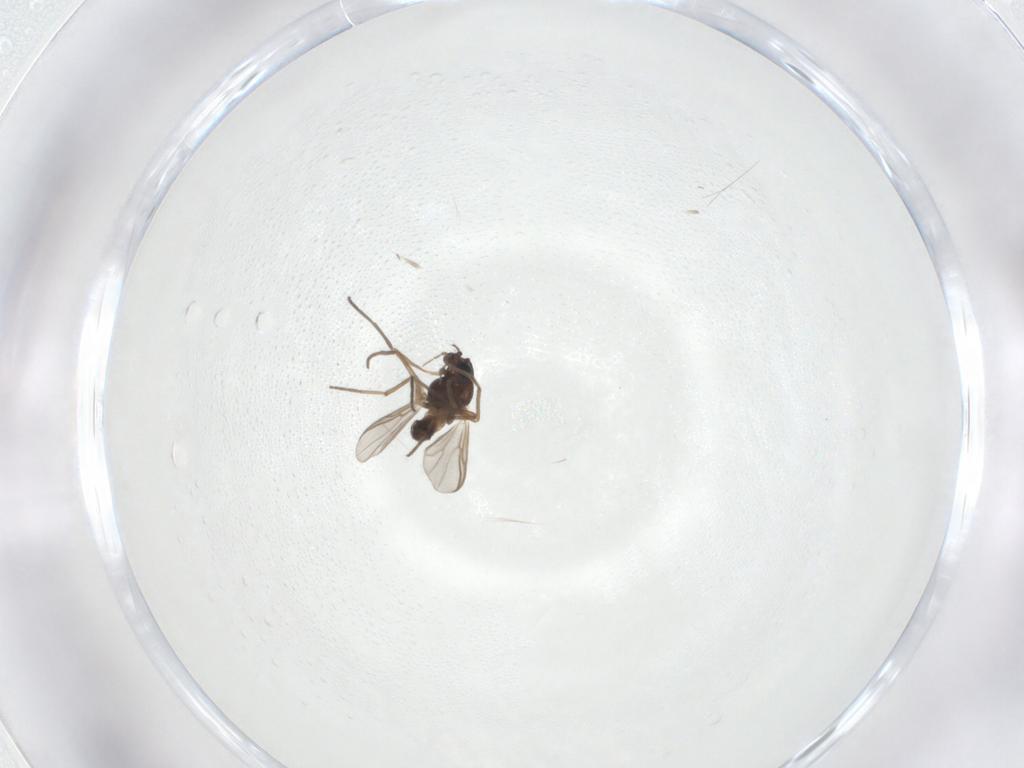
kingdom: Animalia
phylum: Arthropoda
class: Insecta
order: Diptera
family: Chironomidae
